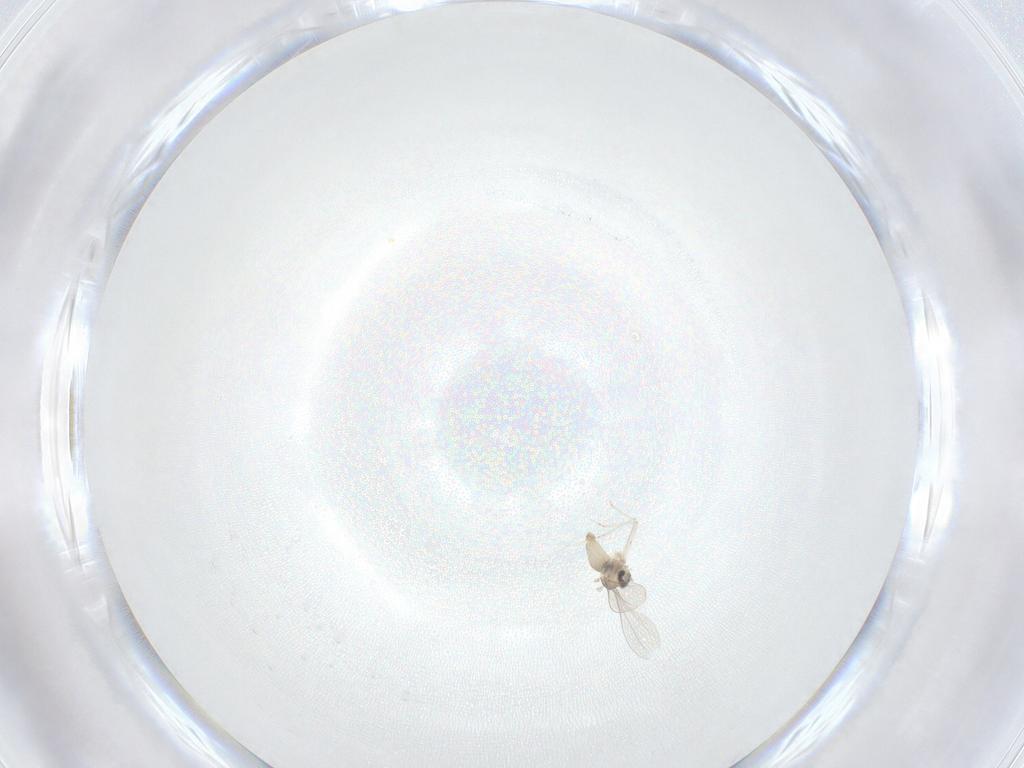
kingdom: Animalia
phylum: Arthropoda
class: Insecta
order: Diptera
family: Cecidomyiidae
